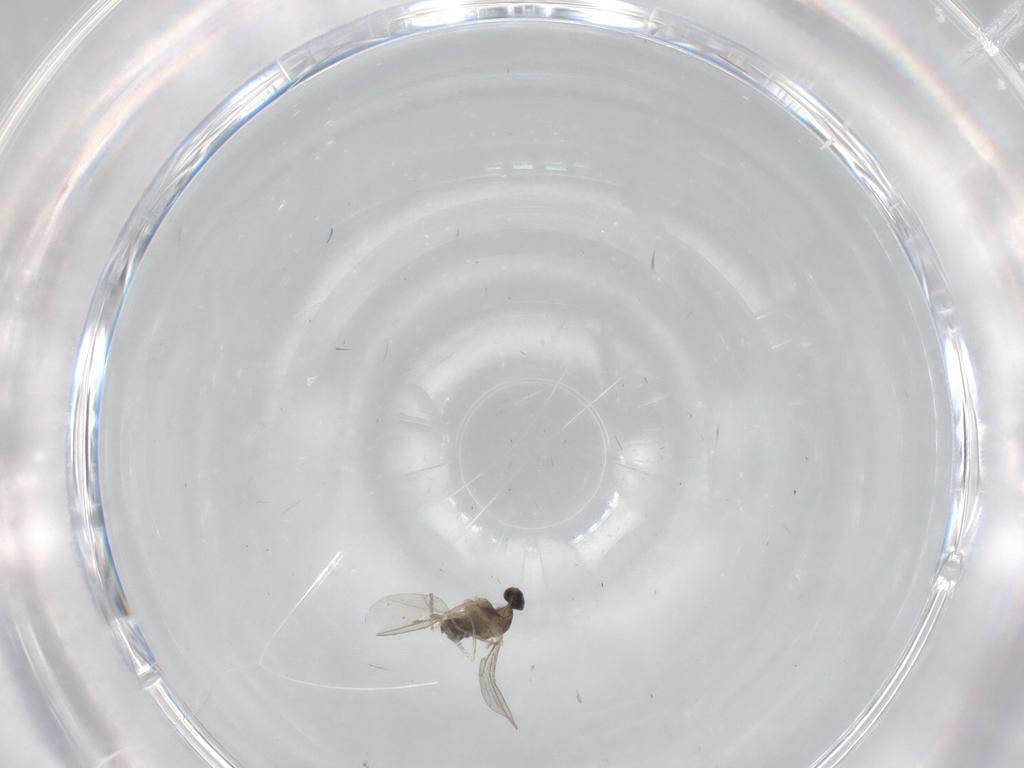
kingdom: Animalia
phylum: Arthropoda
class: Insecta
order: Diptera
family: Cecidomyiidae
